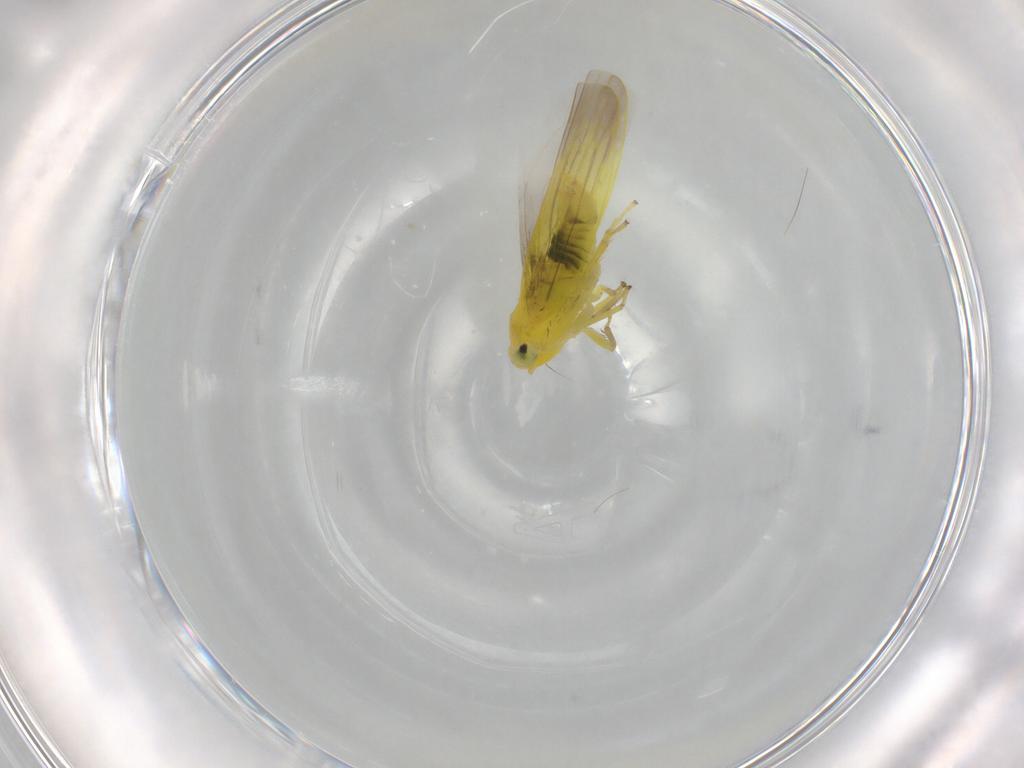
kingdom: Animalia
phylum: Arthropoda
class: Insecta
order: Hemiptera
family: Cicadellidae
